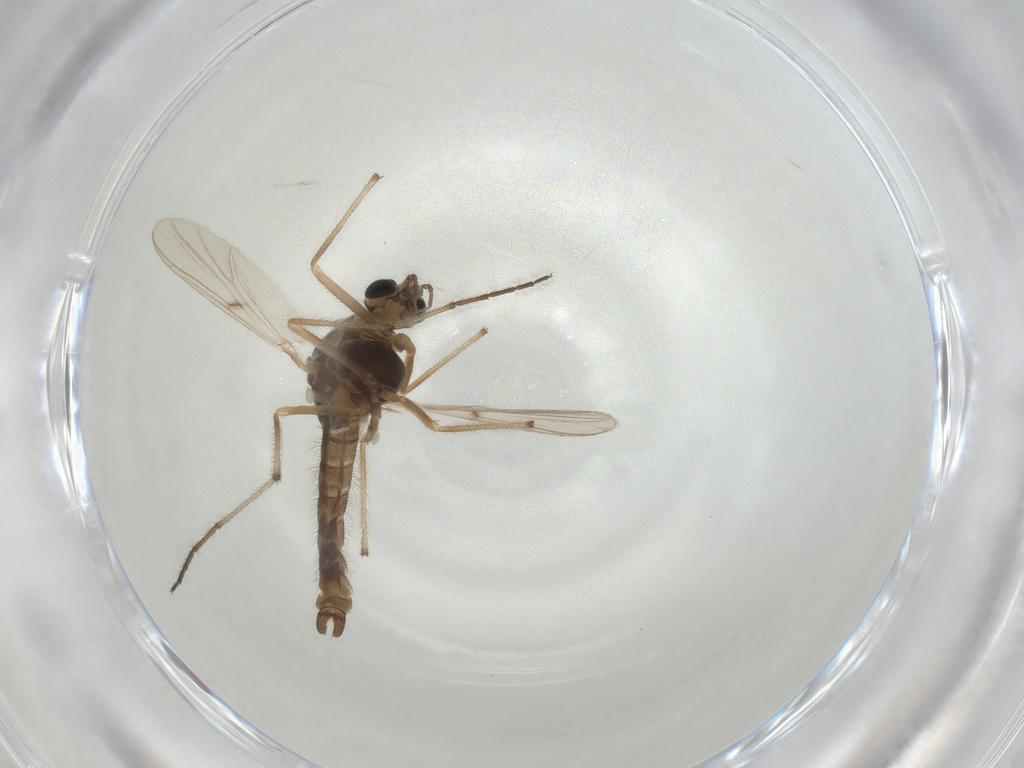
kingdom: Animalia
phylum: Arthropoda
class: Insecta
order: Diptera
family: Chironomidae
